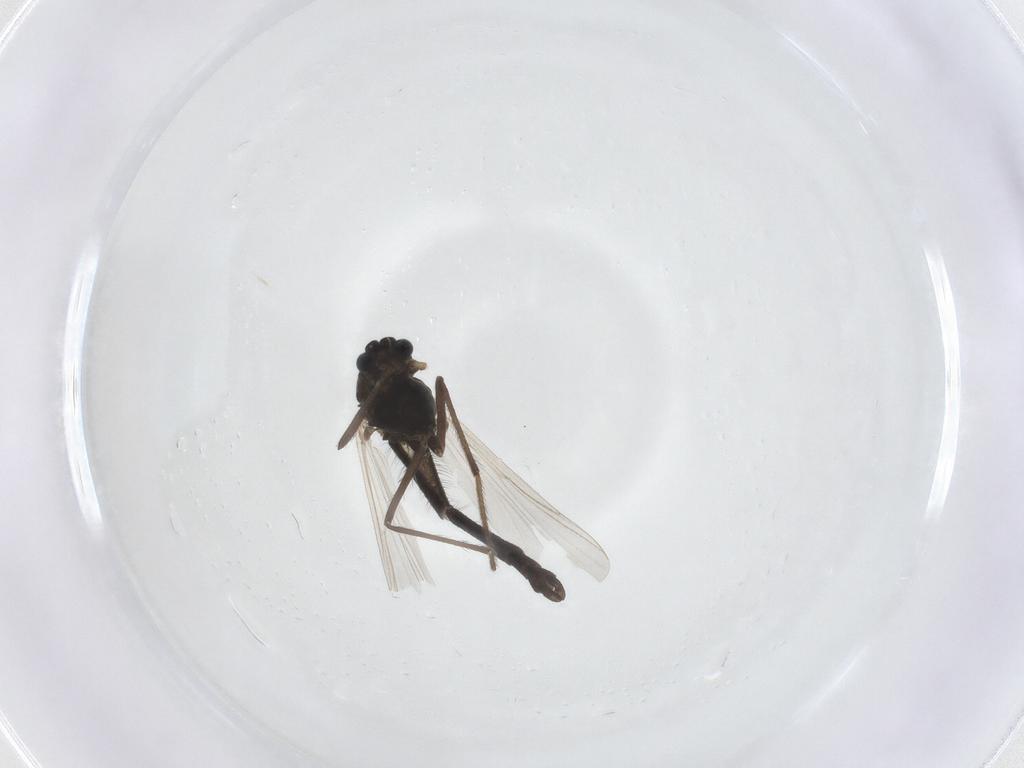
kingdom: Animalia
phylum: Arthropoda
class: Insecta
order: Diptera
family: Chironomidae
